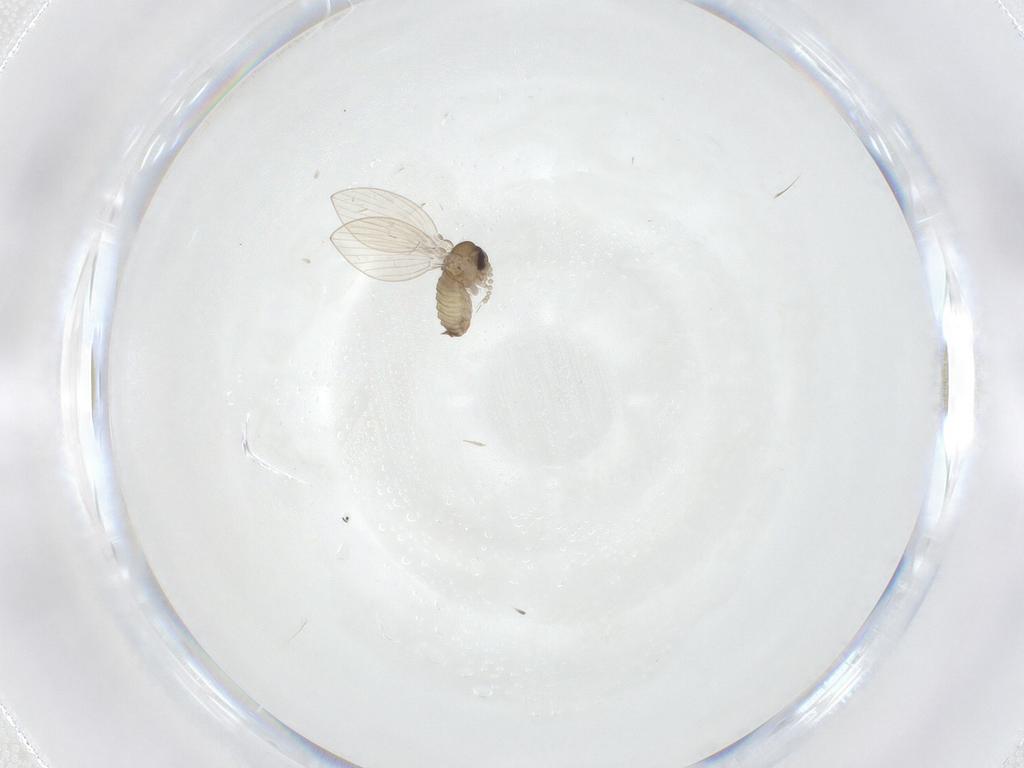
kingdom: Animalia
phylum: Arthropoda
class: Insecta
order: Diptera
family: Psychodidae
